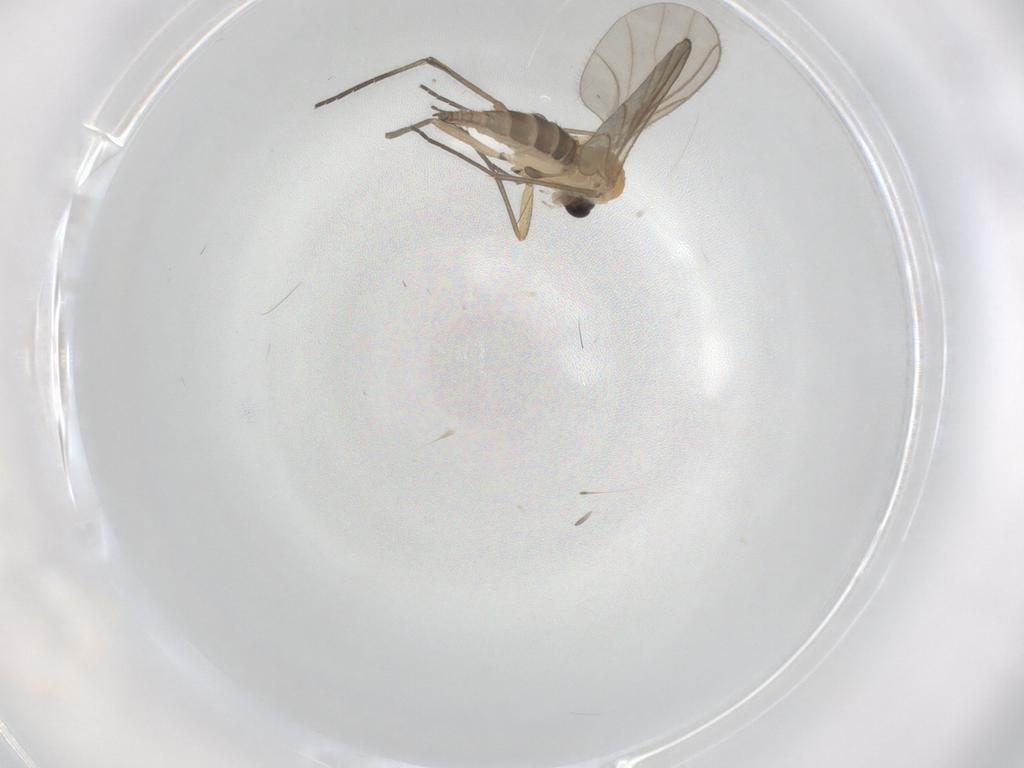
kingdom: Animalia
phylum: Arthropoda
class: Insecta
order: Diptera
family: Sciaridae
